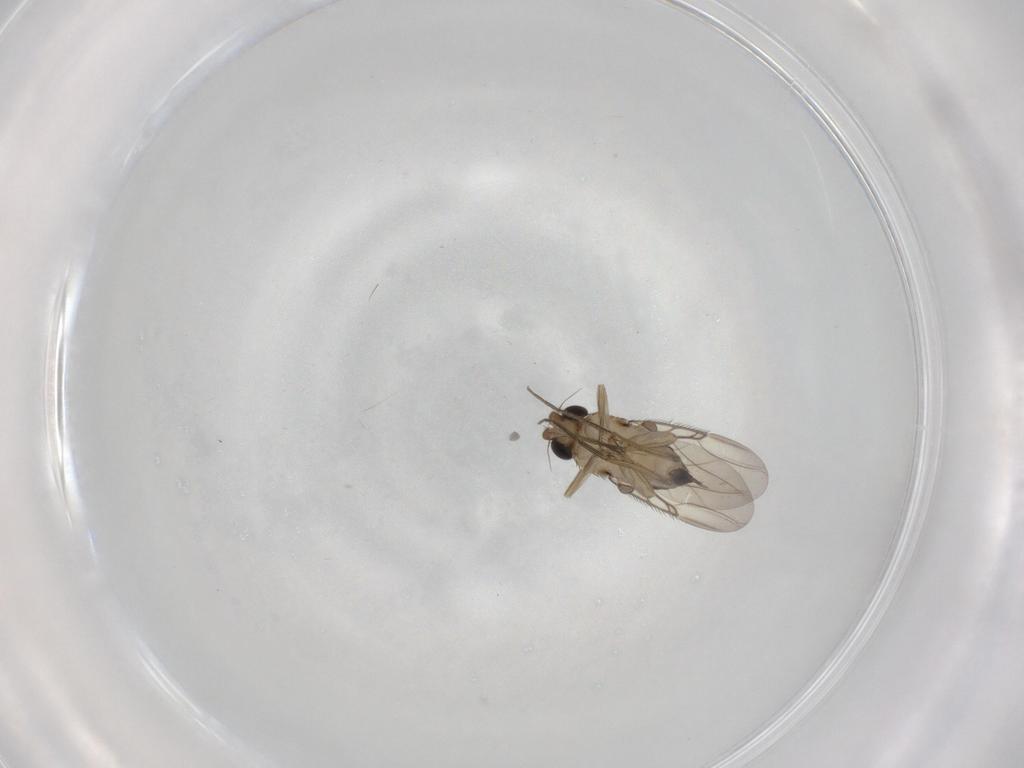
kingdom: Animalia
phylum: Arthropoda
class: Insecta
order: Diptera
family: Phoridae
